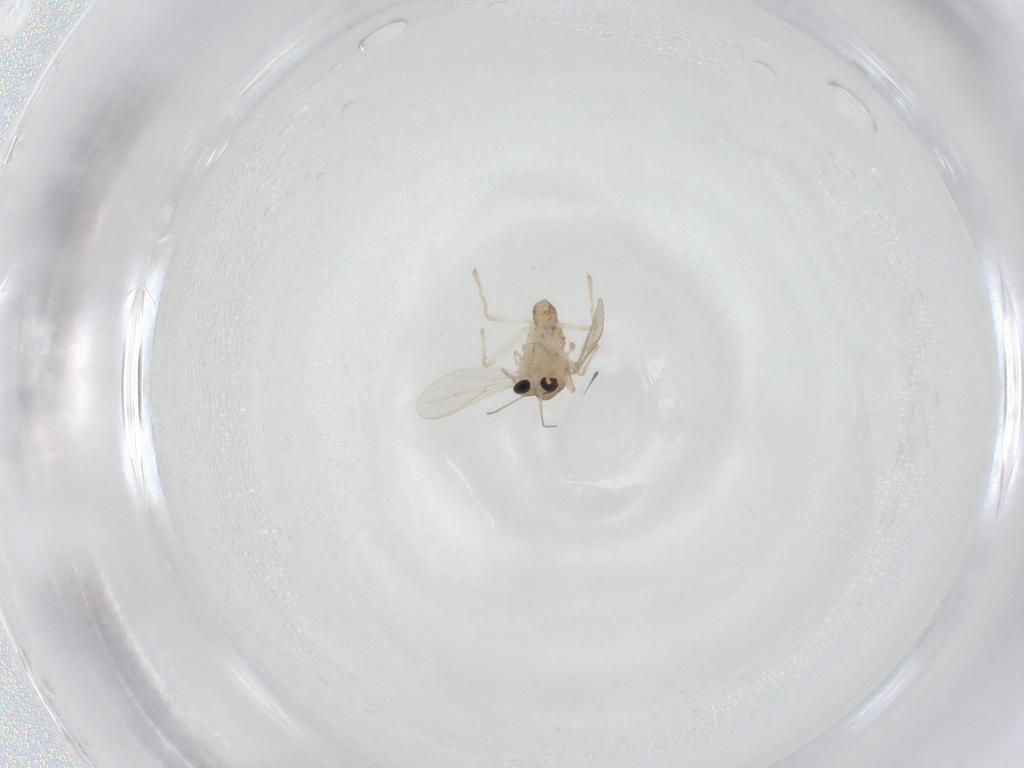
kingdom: Animalia
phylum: Arthropoda
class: Insecta
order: Diptera
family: Chironomidae
